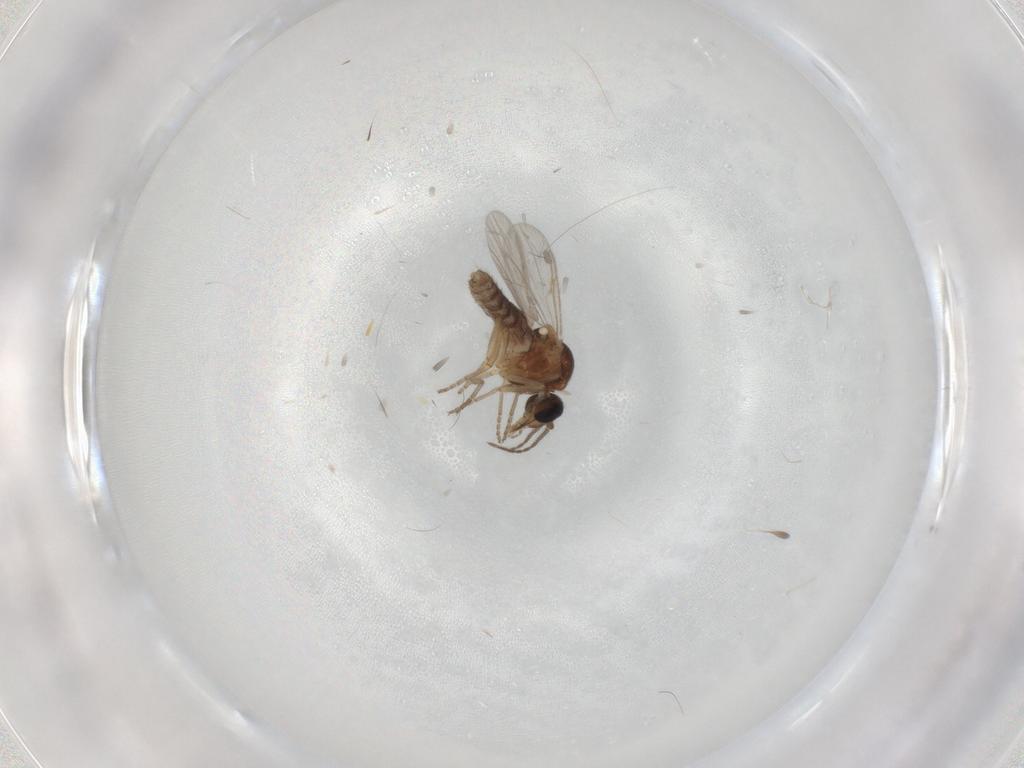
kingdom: Animalia
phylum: Arthropoda
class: Insecta
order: Diptera
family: Ceratopogonidae
